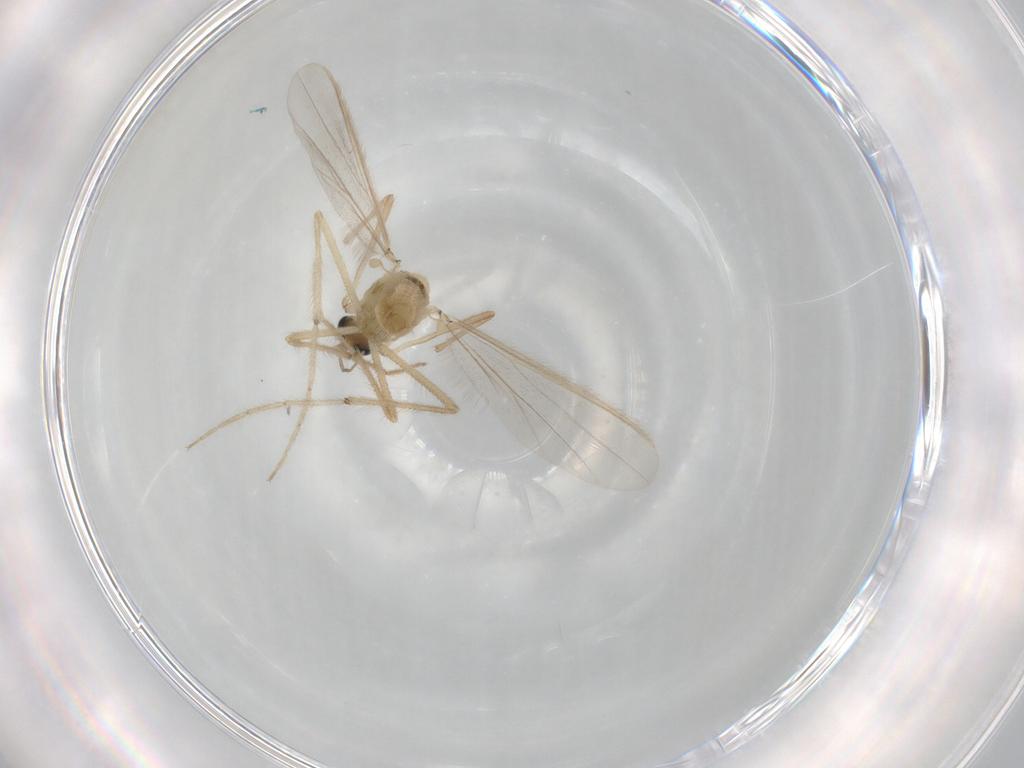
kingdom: Animalia
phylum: Arthropoda
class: Insecta
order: Diptera
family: Chironomidae
